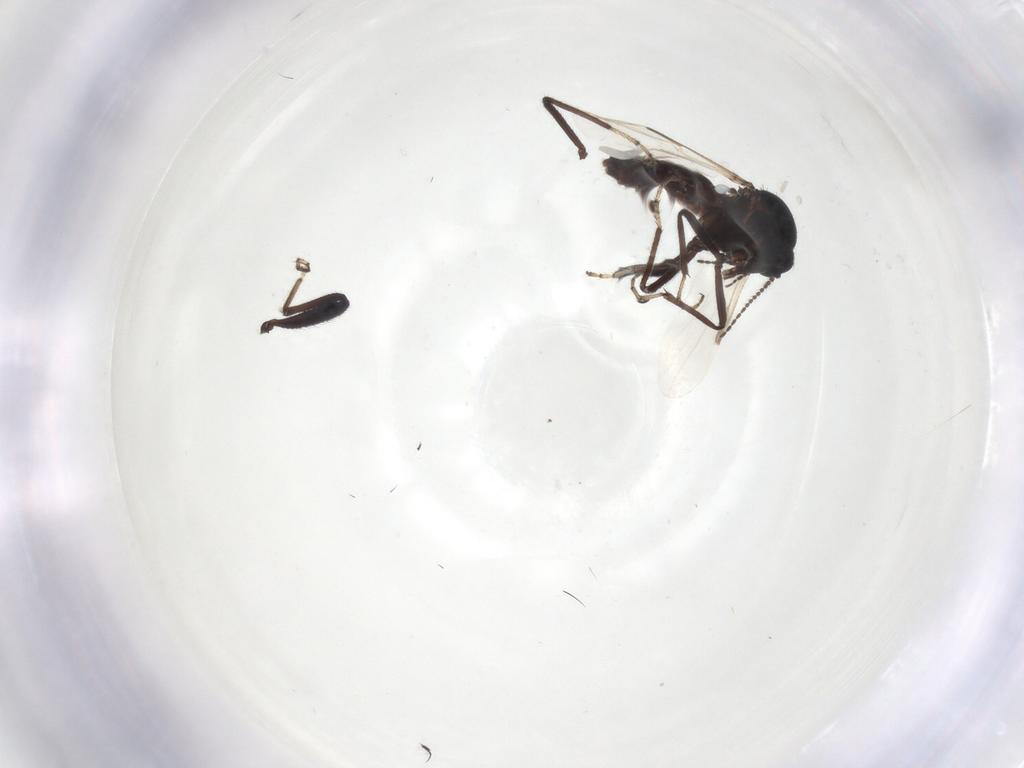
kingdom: Animalia
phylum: Arthropoda
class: Insecta
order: Diptera
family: Ceratopogonidae
